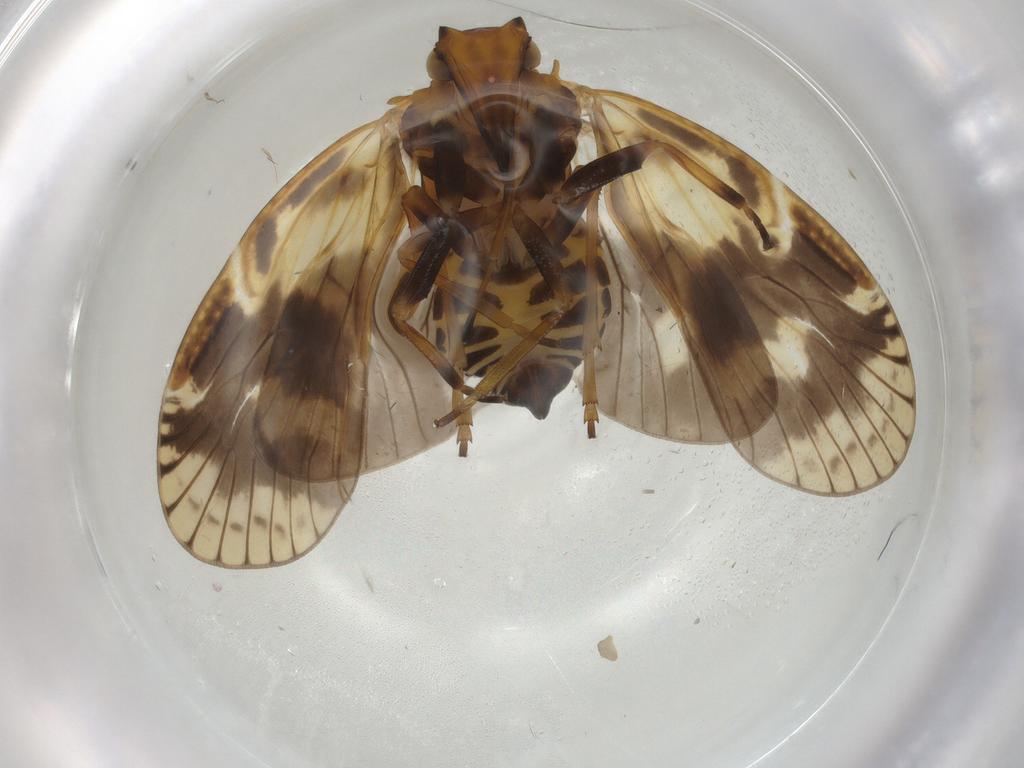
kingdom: Animalia
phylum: Arthropoda
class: Insecta
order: Hemiptera
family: Cixiidae
